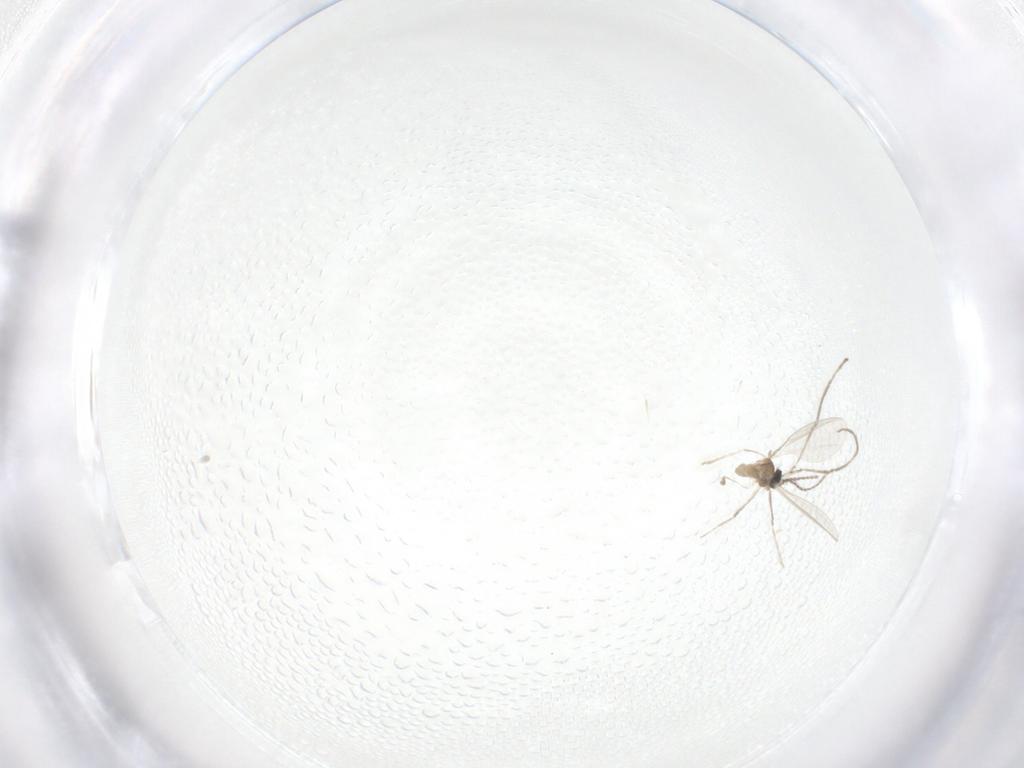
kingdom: Animalia
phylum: Arthropoda
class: Insecta
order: Diptera
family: Cecidomyiidae
